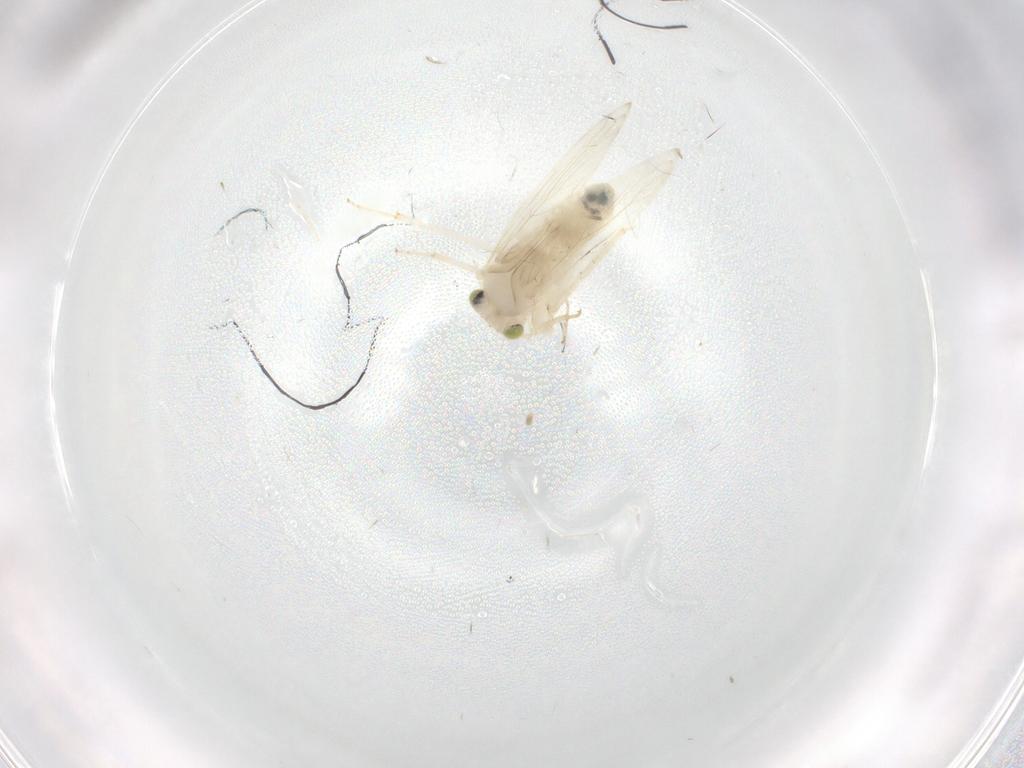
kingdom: Animalia
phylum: Arthropoda
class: Insecta
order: Psocodea
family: Lepidopsocidae
